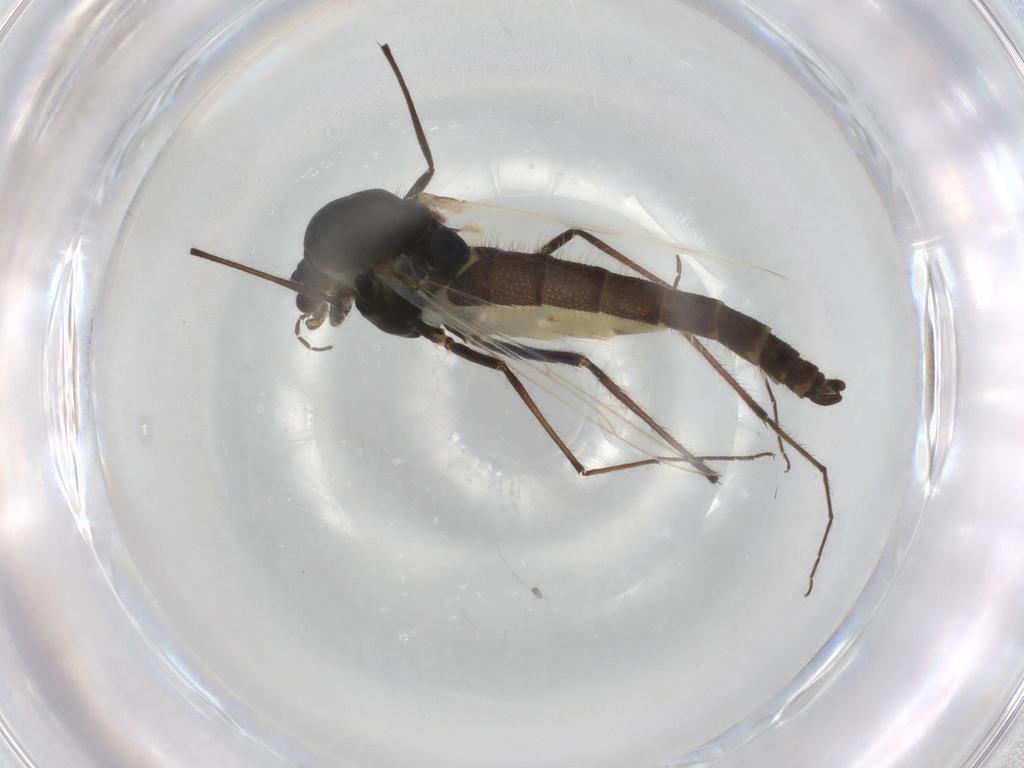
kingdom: Animalia
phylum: Arthropoda
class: Insecta
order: Diptera
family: Chironomidae
